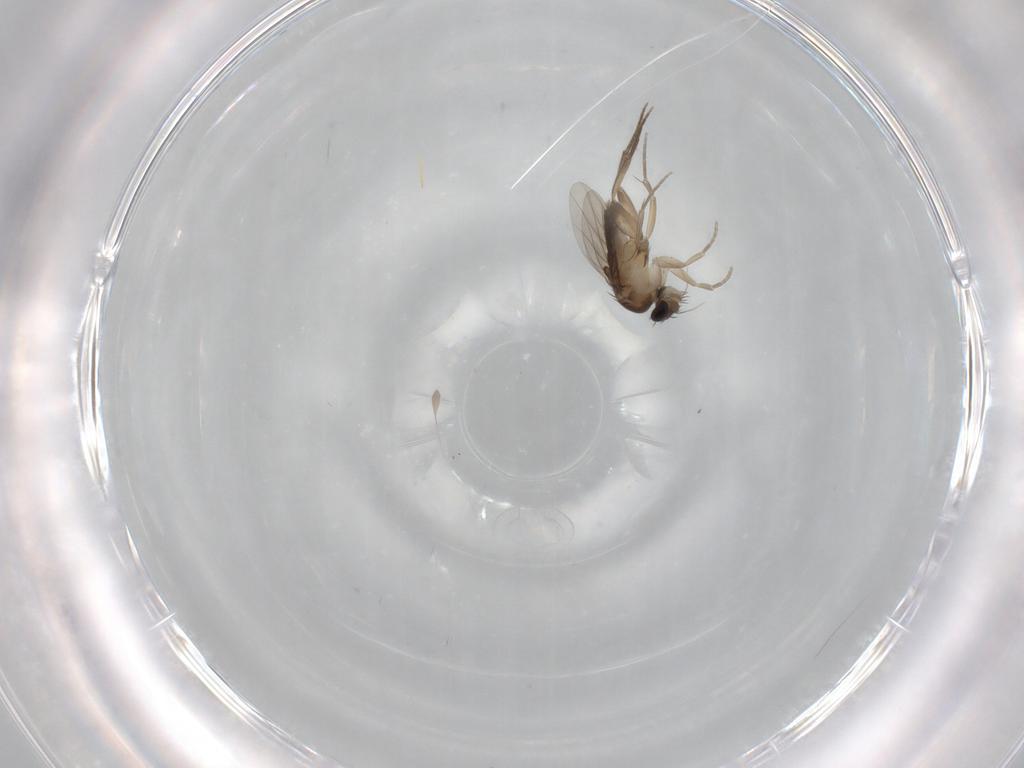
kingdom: Animalia
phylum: Arthropoda
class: Insecta
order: Diptera
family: Phoridae
